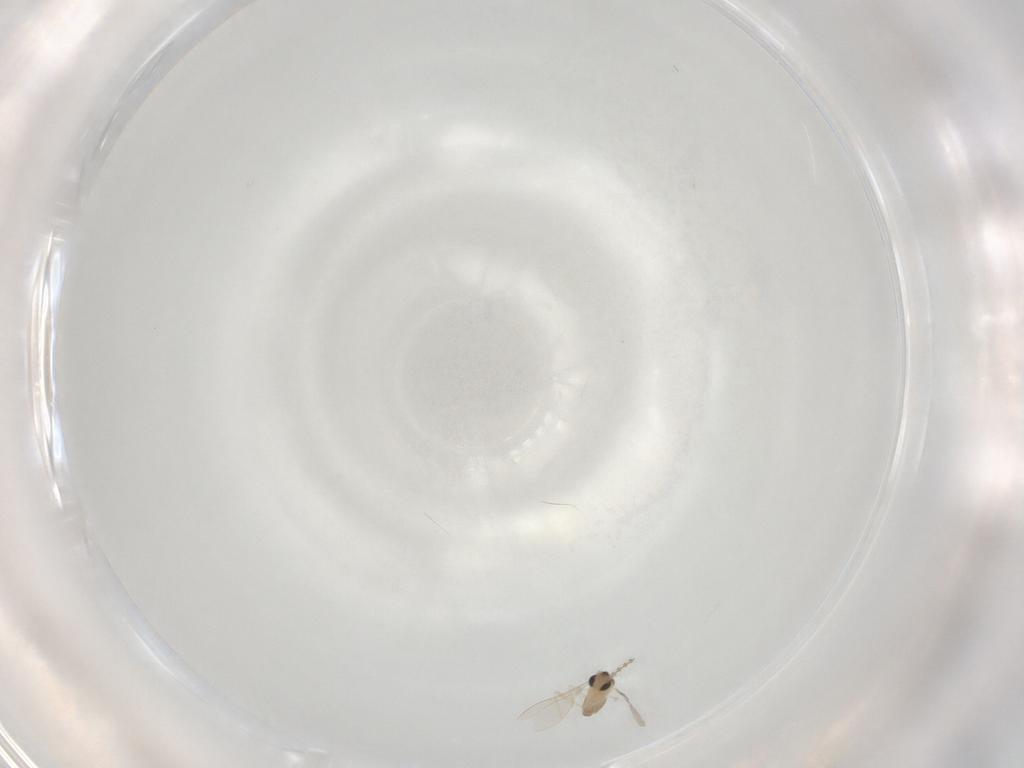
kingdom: Animalia
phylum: Arthropoda
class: Insecta
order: Diptera
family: Cecidomyiidae
